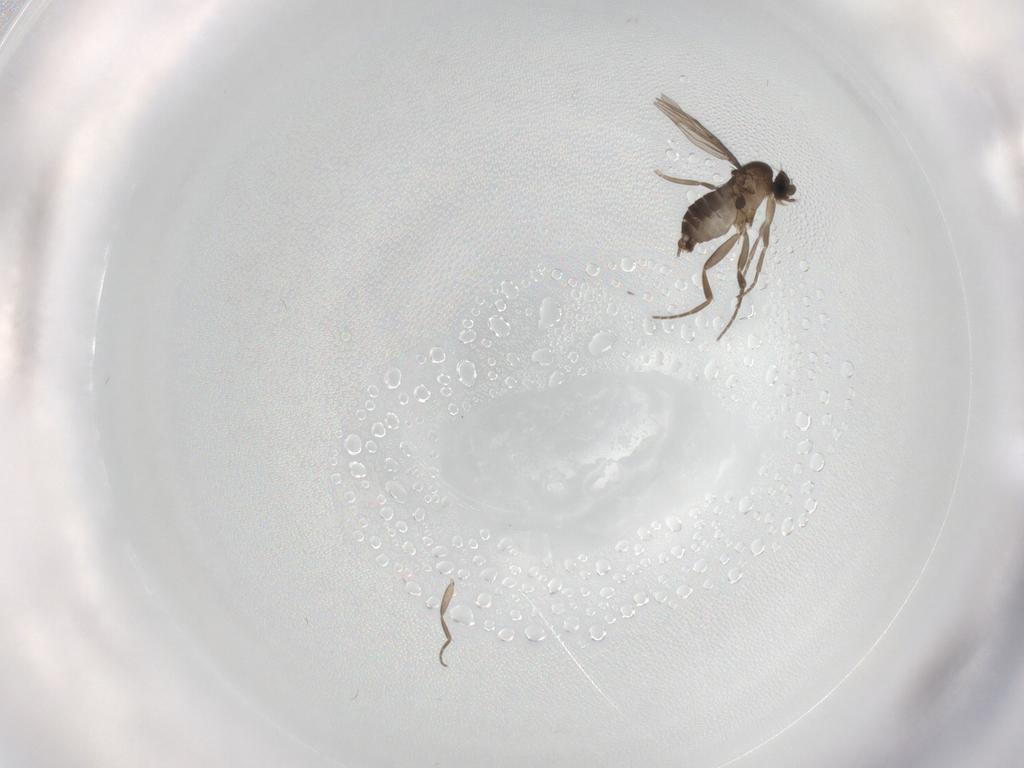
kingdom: Animalia
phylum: Arthropoda
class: Insecta
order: Diptera
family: Phoridae
